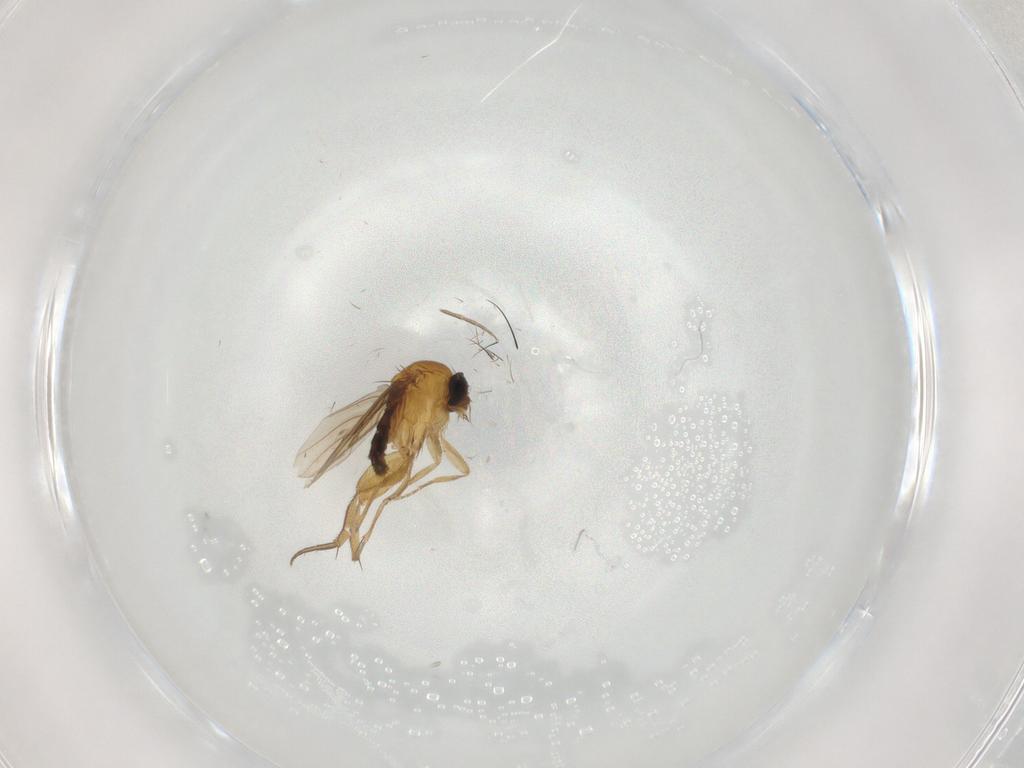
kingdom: Animalia
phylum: Arthropoda
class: Insecta
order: Diptera
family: Phoridae
